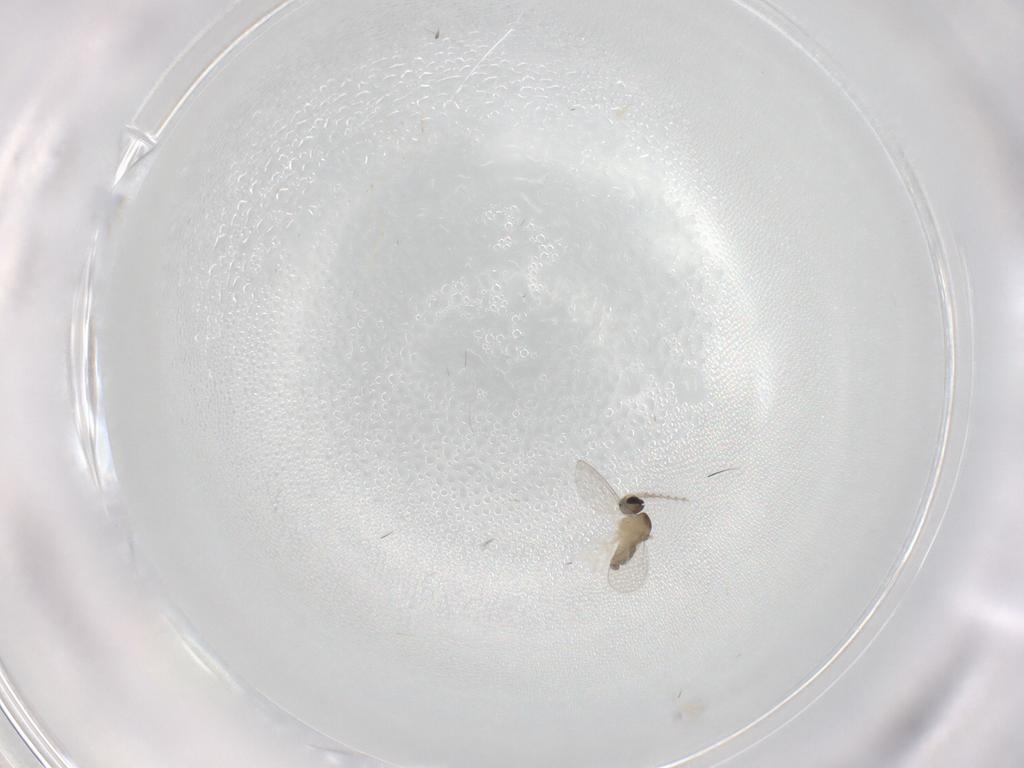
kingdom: Animalia
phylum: Arthropoda
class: Insecta
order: Diptera
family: Cecidomyiidae
